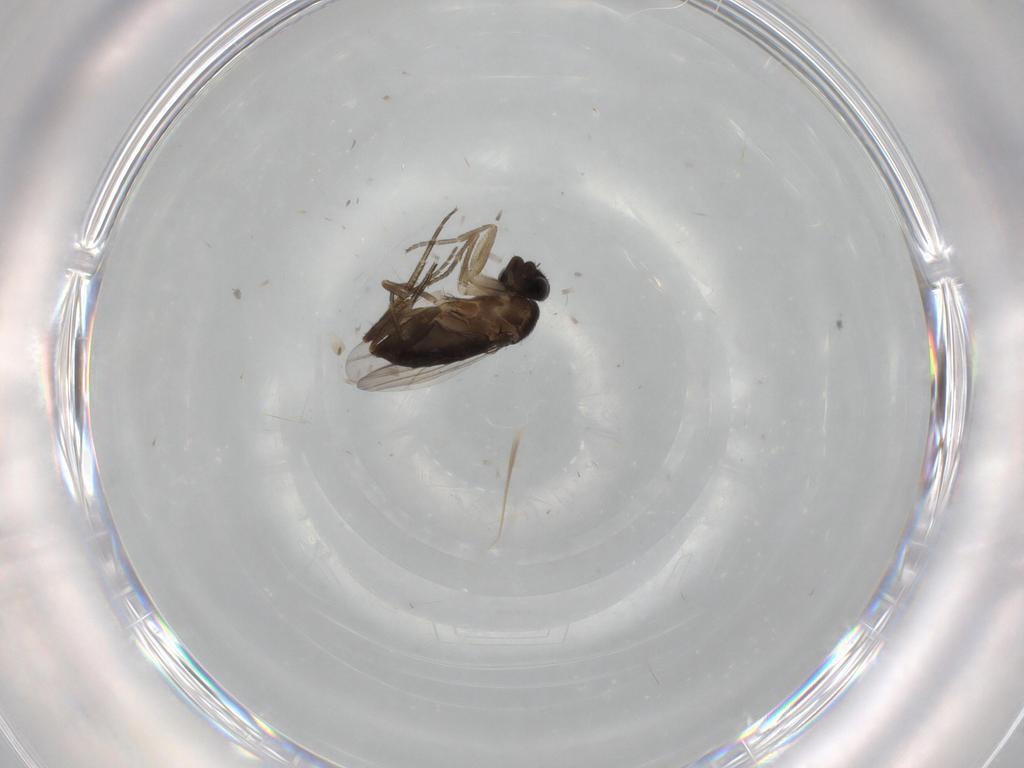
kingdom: Animalia
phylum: Arthropoda
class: Insecta
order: Diptera
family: Phoridae
